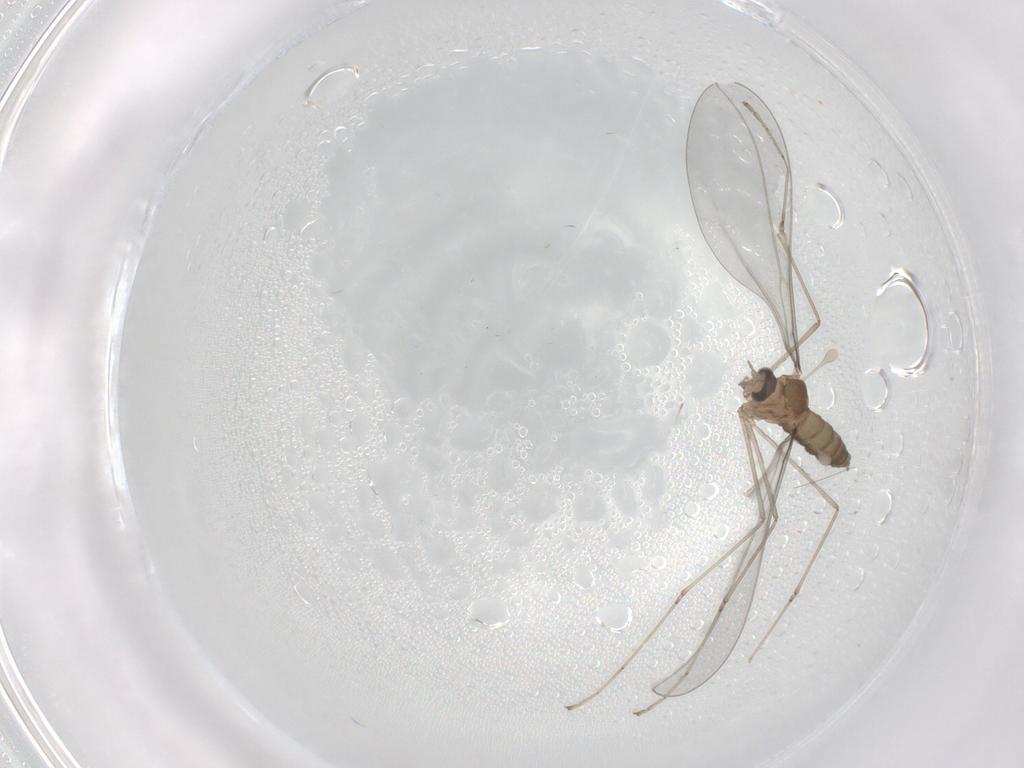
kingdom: Animalia
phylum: Arthropoda
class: Insecta
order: Diptera
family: Cecidomyiidae
